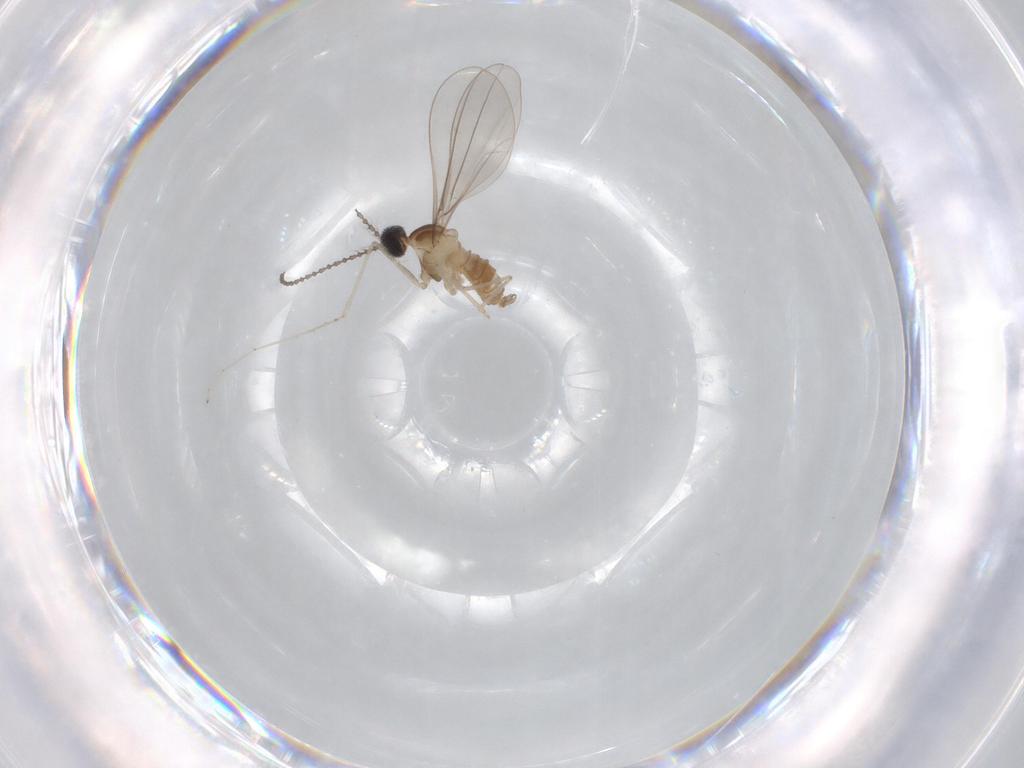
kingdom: Animalia
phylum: Arthropoda
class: Insecta
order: Diptera
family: Sciaridae
